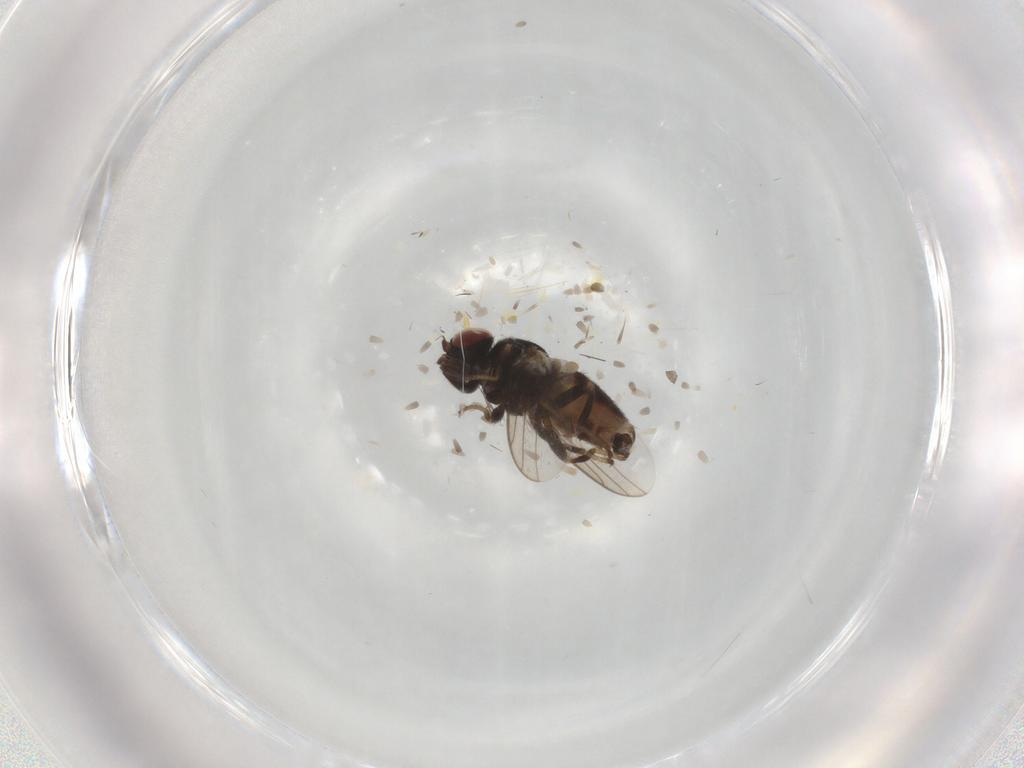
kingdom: Animalia
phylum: Arthropoda
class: Insecta
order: Diptera
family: Chloropidae
